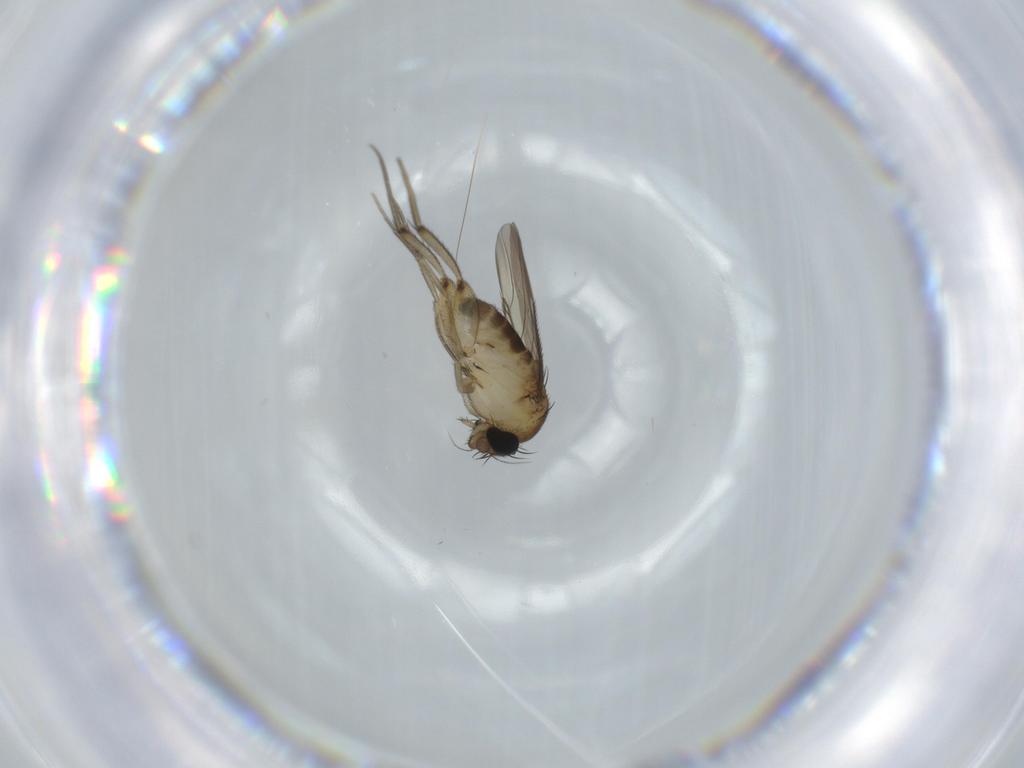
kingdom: Animalia
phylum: Arthropoda
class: Insecta
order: Diptera
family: Phoridae
